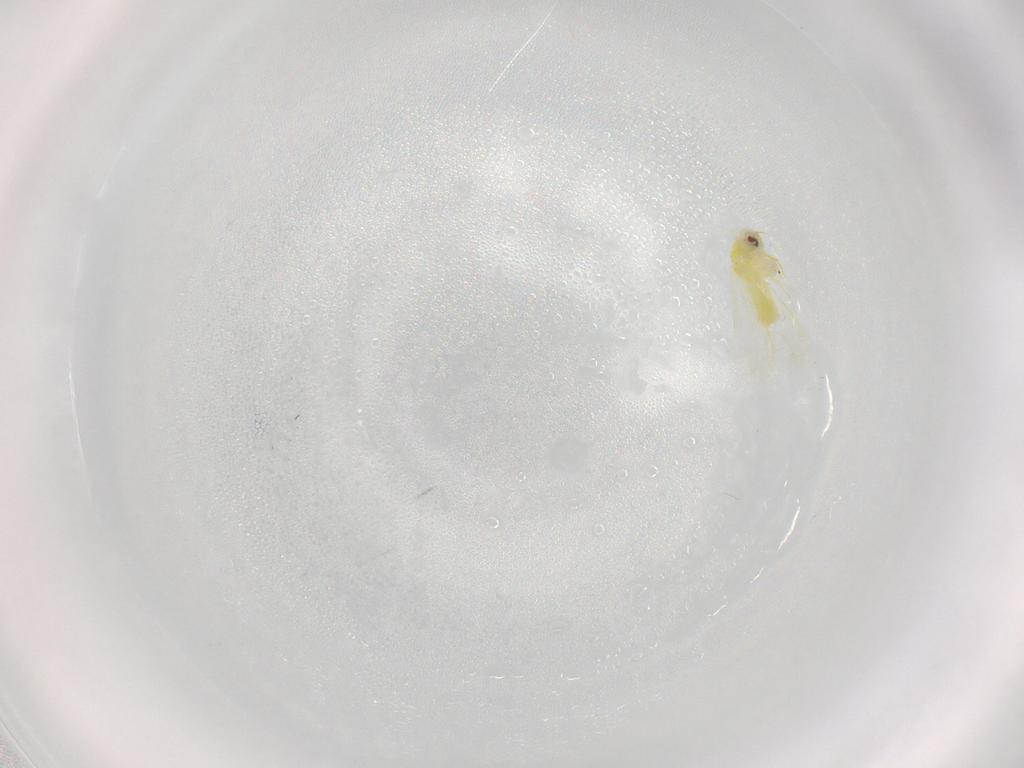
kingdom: Animalia
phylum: Arthropoda
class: Insecta
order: Hemiptera
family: Aleyrodidae
